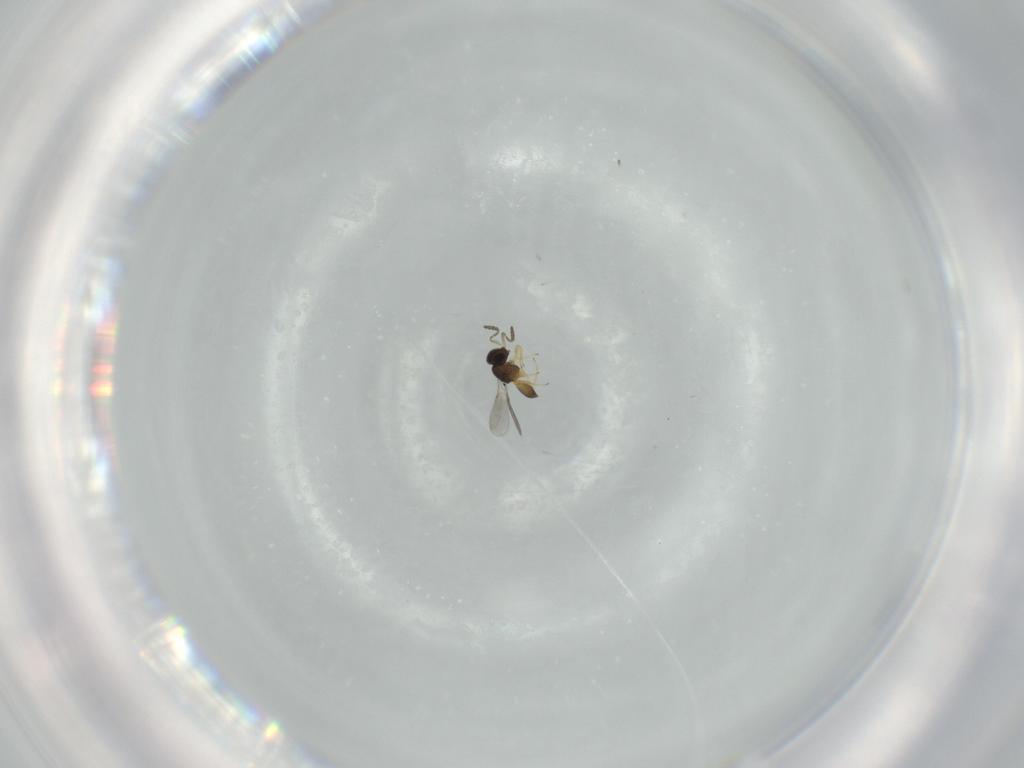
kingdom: Animalia
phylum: Arthropoda
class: Insecta
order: Hymenoptera
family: Scelionidae
